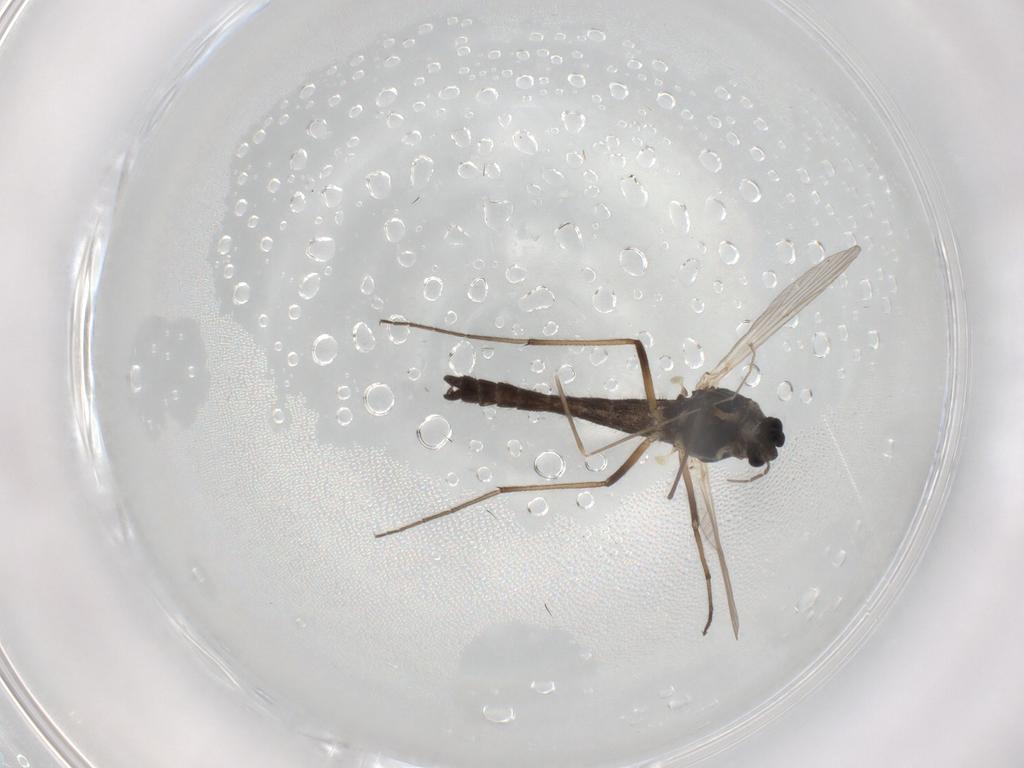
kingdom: Animalia
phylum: Arthropoda
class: Insecta
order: Diptera
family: Sciaridae
